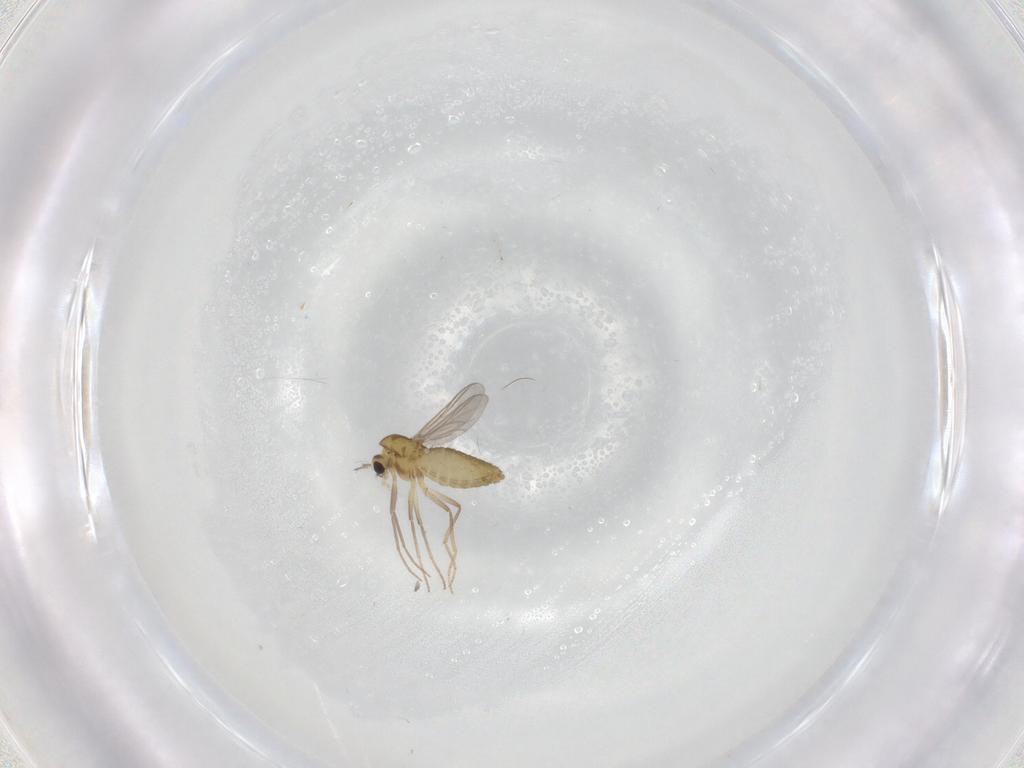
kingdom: Animalia
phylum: Arthropoda
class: Insecta
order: Diptera
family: Chironomidae
